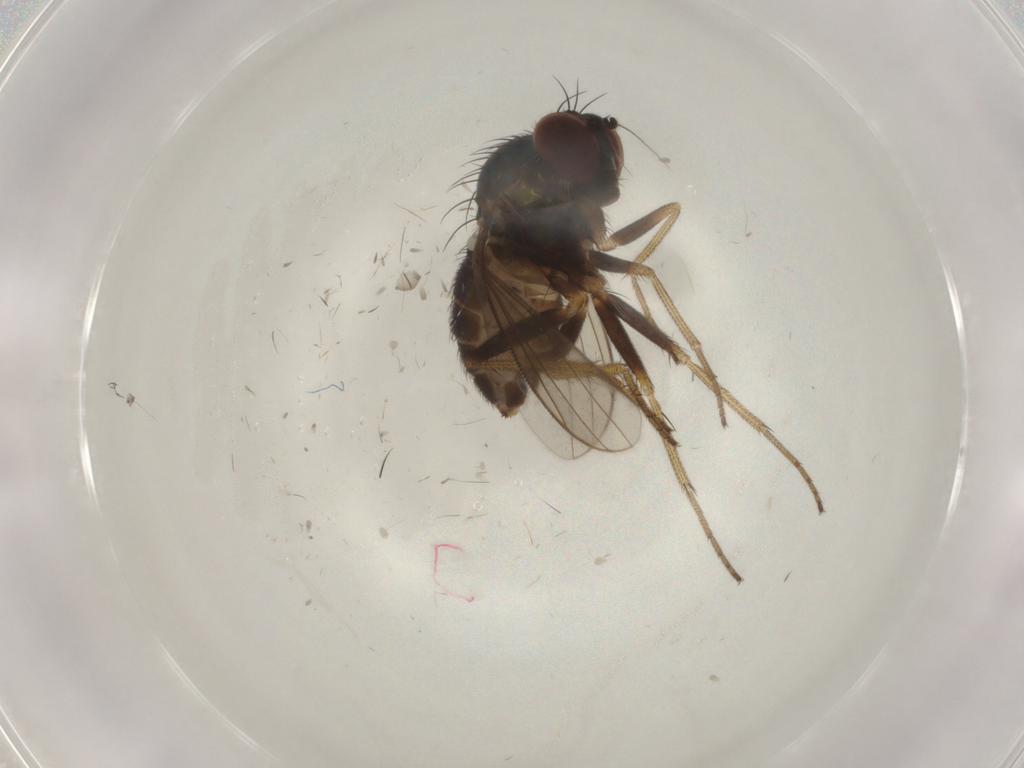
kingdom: Animalia
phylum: Arthropoda
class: Insecta
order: Diptera
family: Dolichopodidae
